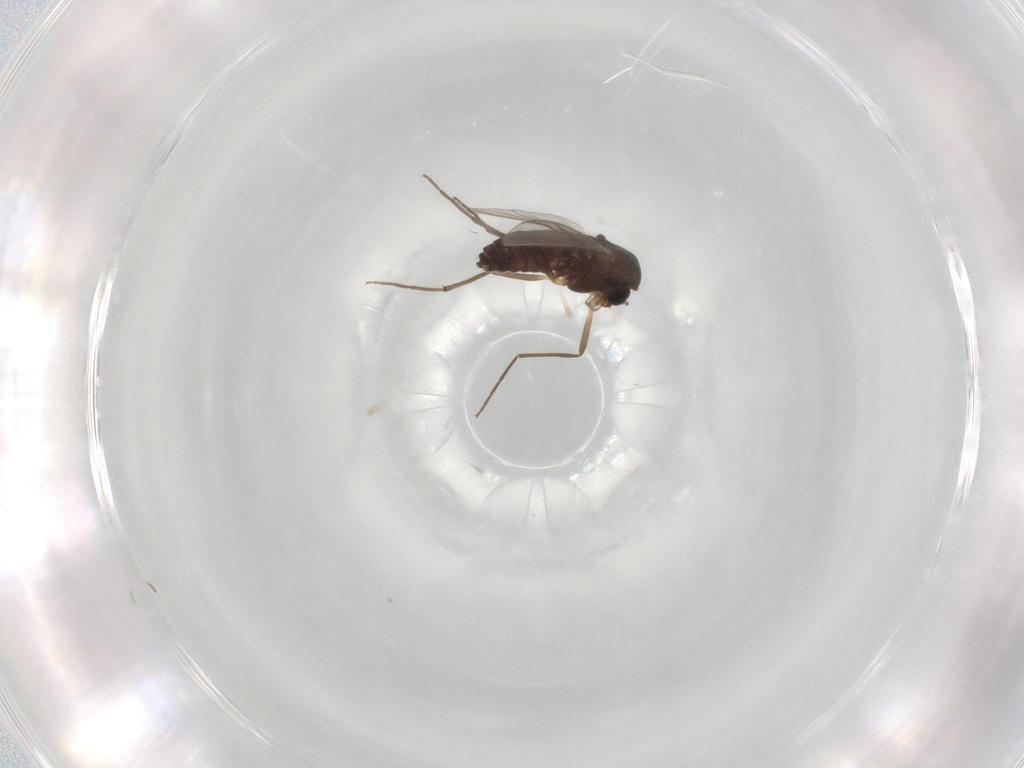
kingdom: Animalia
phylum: Arthropoda
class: Insecta
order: Diptera
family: Chironomidae
